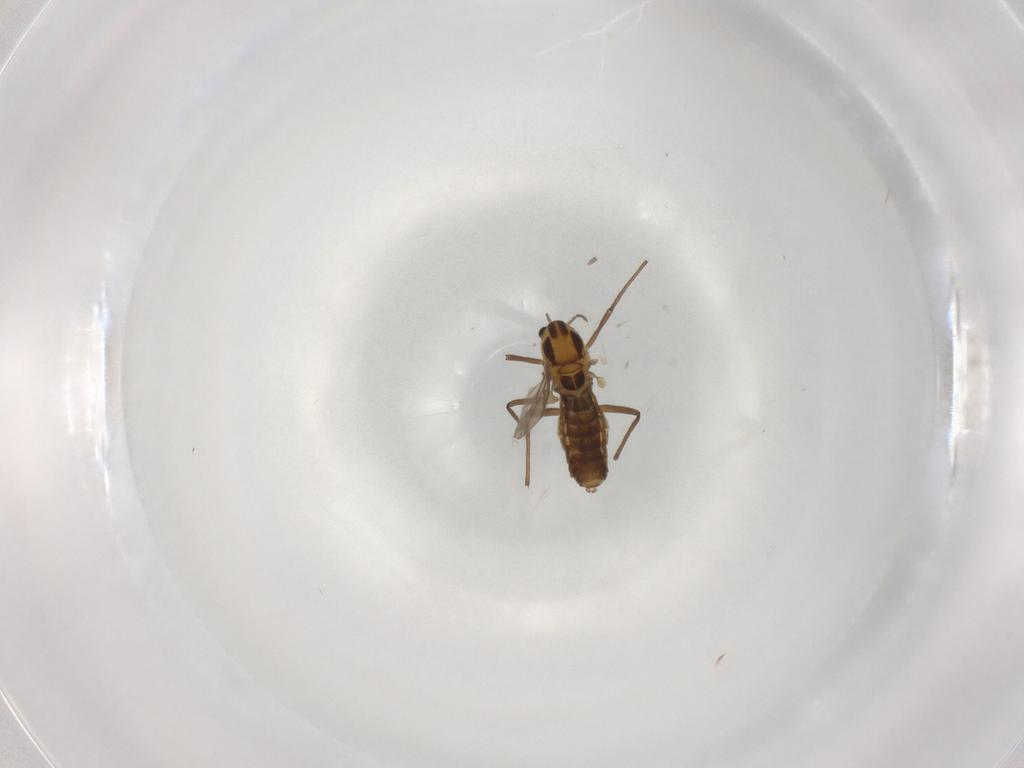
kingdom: Animalia
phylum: Arthropoda
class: Insecta
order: Diptera
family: Chironomidae
